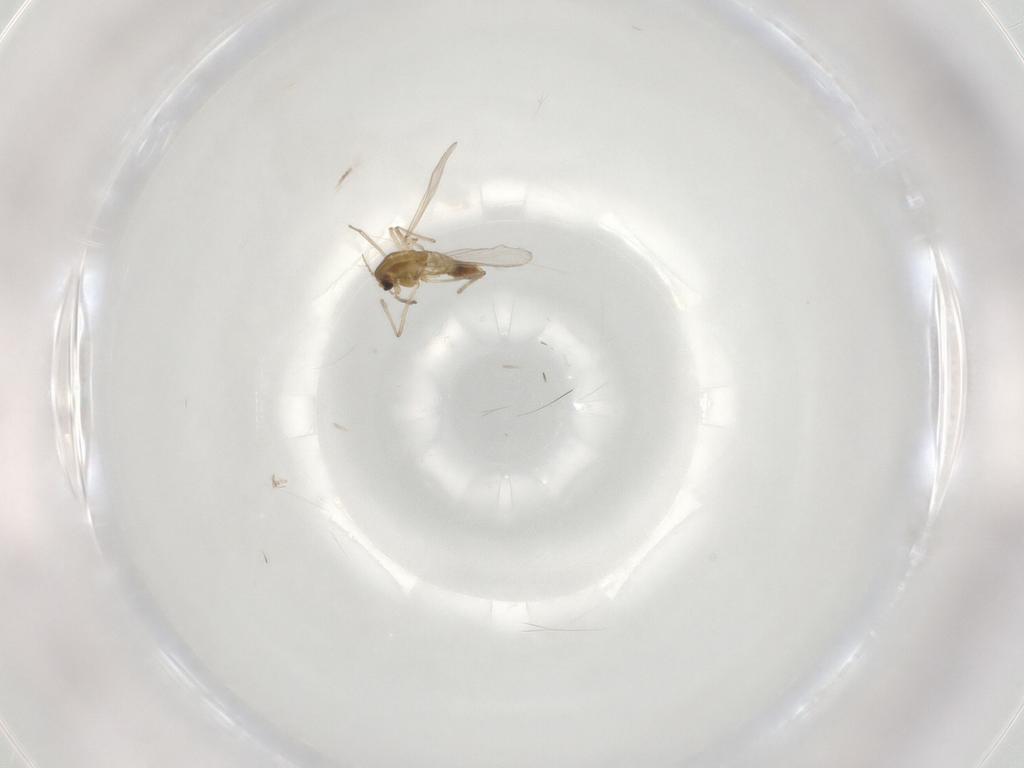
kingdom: Animalia
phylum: Arthropoda
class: Insecta
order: Diptera
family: Chironomidae
